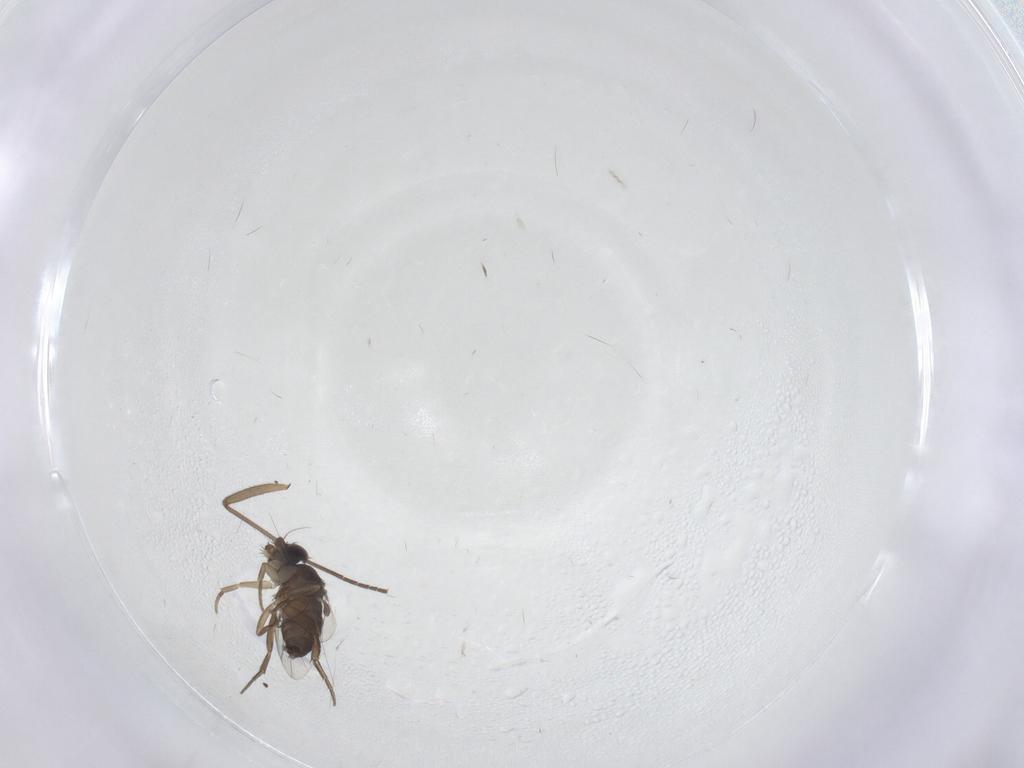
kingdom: Animalia
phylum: Arthropoda
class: Insecta
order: Diptera
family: Sciaridae
